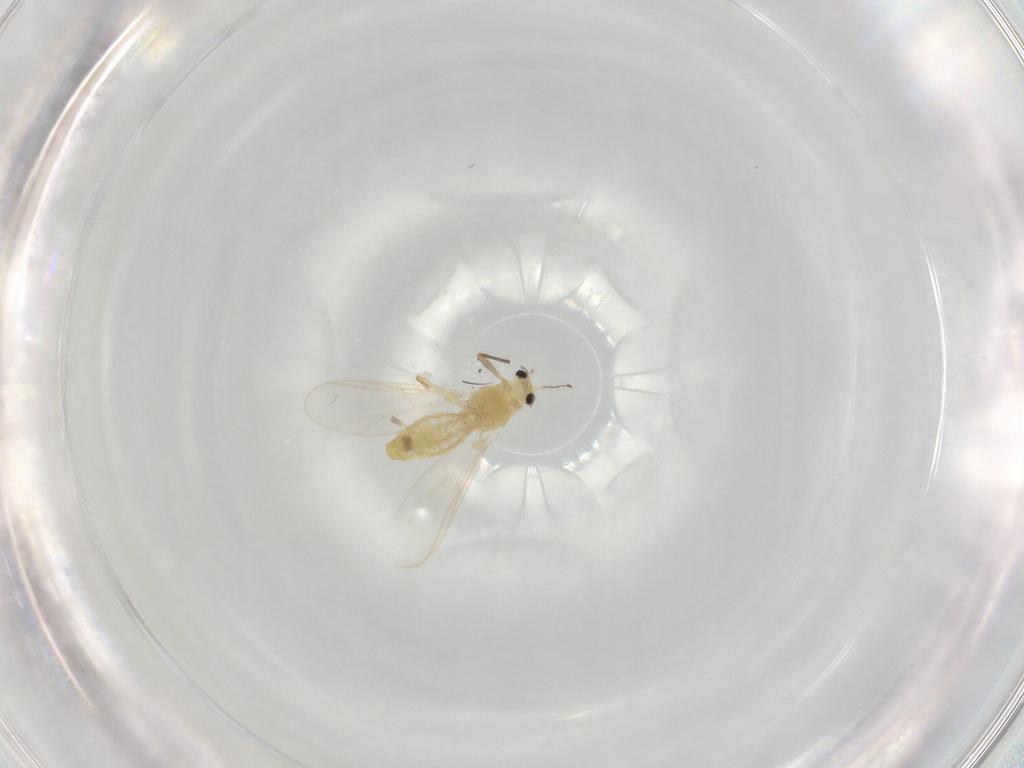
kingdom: Animalia
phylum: Arthropoda
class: Insecta
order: Diptera
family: Chironomidae
